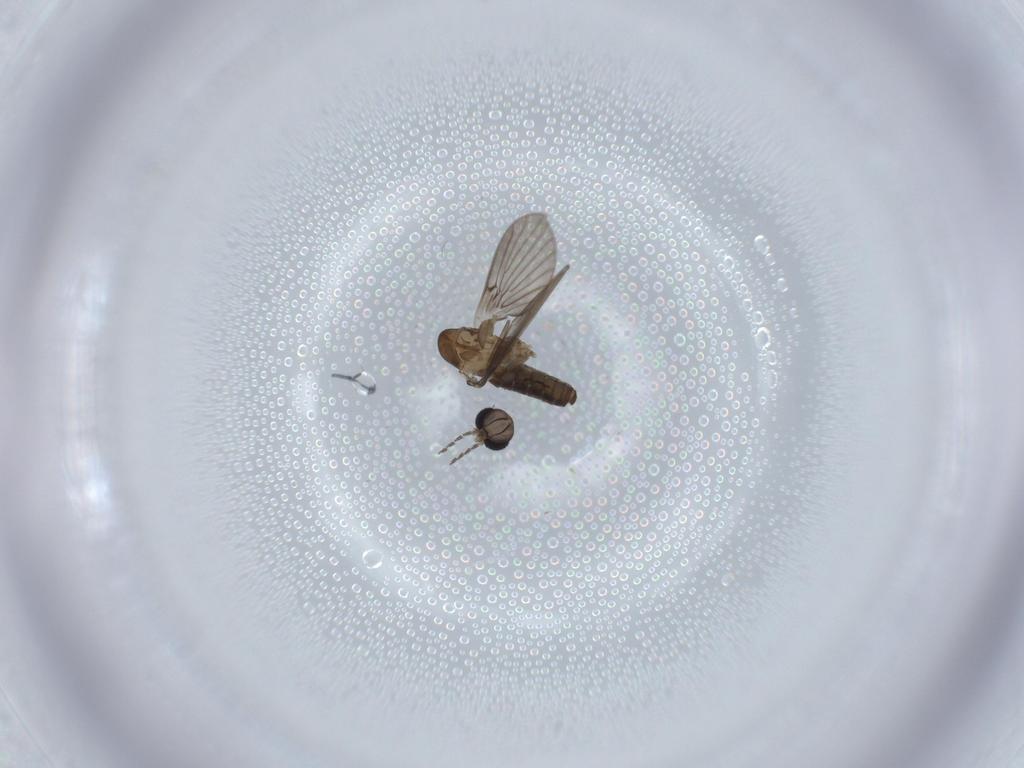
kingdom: Animalia
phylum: Arthropoda
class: Insecta
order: Diptera
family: Psychodidae
